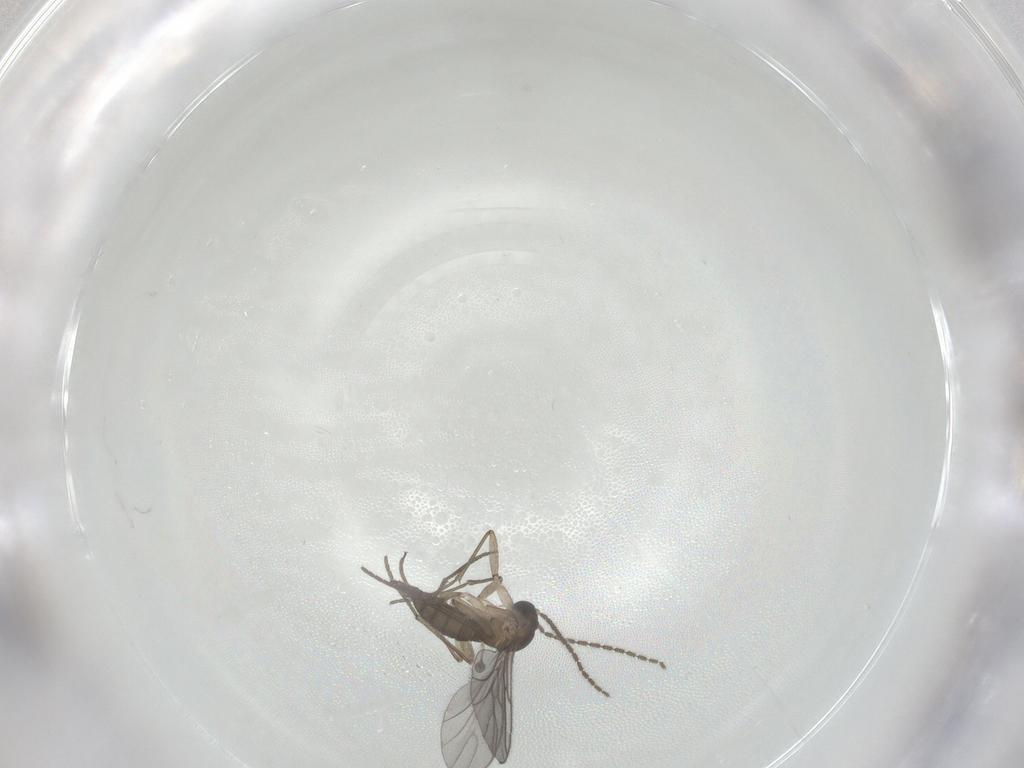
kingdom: Animalia
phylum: Arthropoda
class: Insecta
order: Diptera
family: Sciaridae
